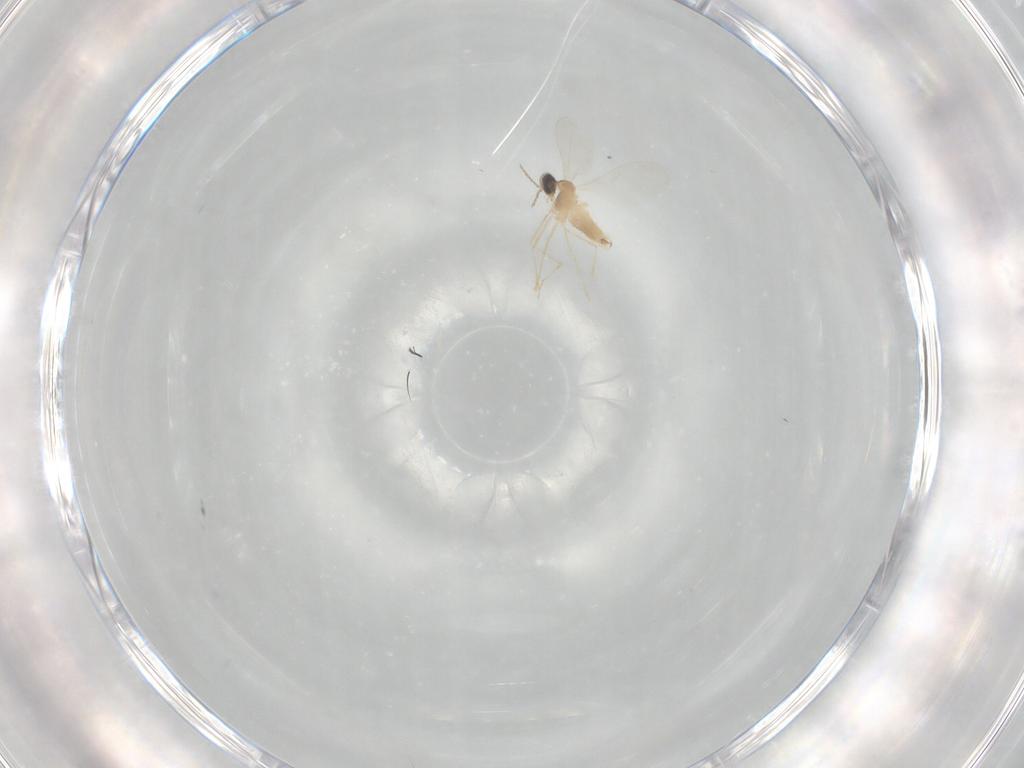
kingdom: Animalia
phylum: Arthropoda
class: Insecta
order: Diptera
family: Cecidomyiidae
